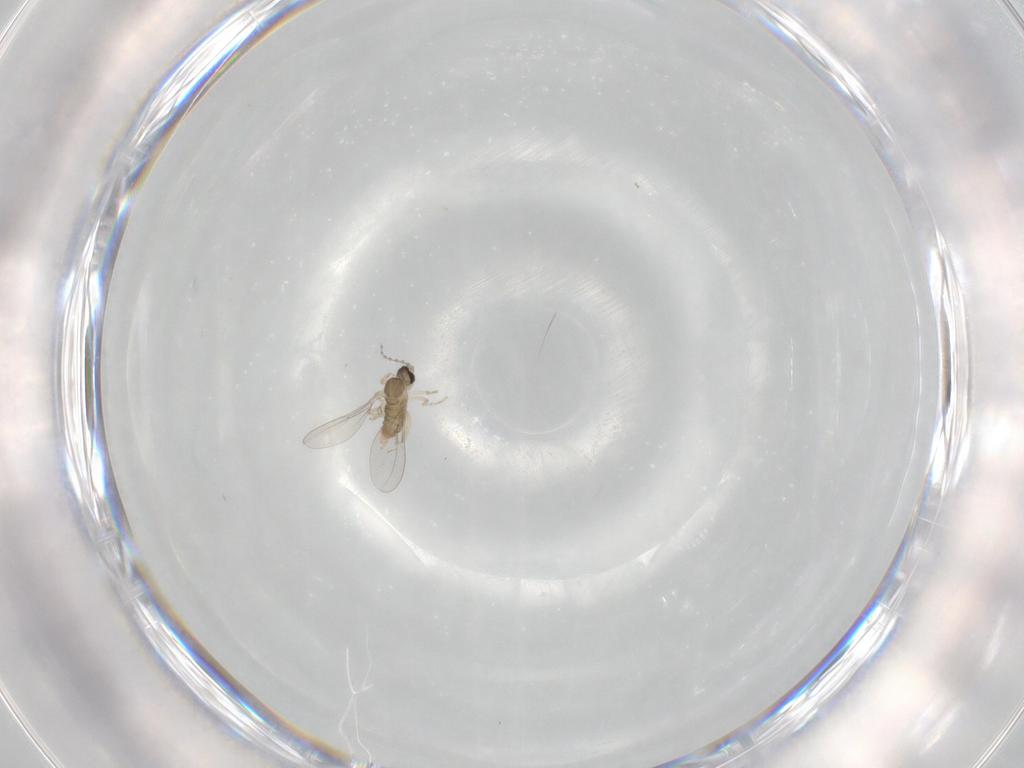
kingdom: Animalia
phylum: Arthropoda
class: Insecta
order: Diptera
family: Cecidomyiidae
